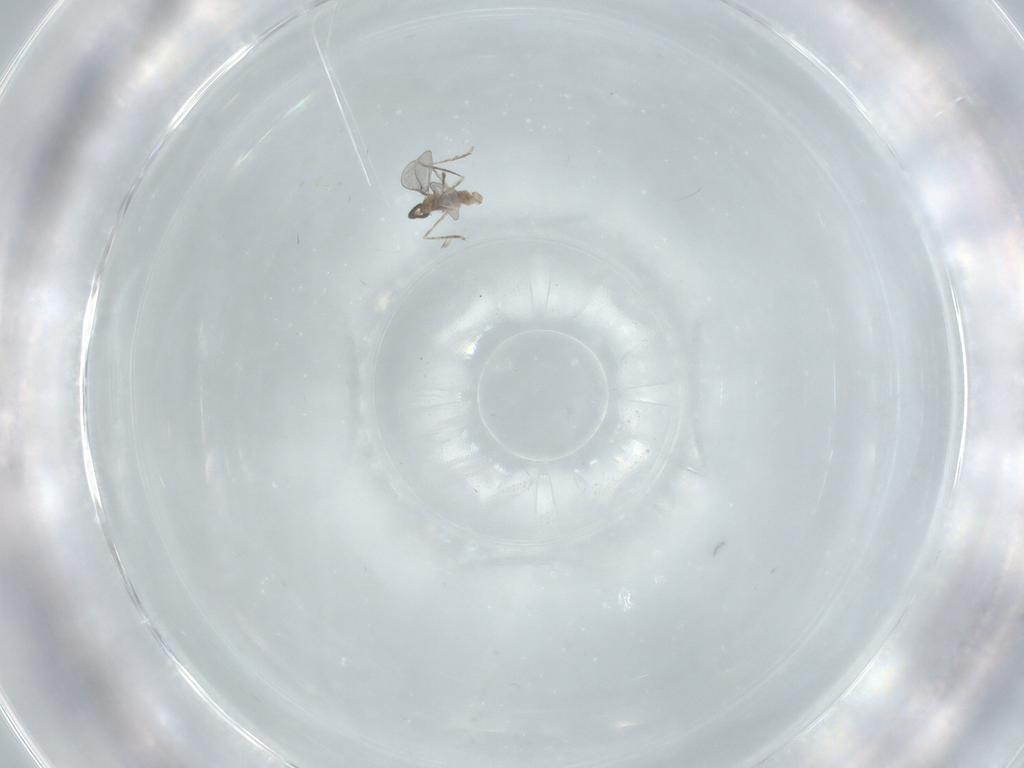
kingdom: Animalia
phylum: Arthropoda
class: Insecta
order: Diptera
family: Cecidomyiidae
